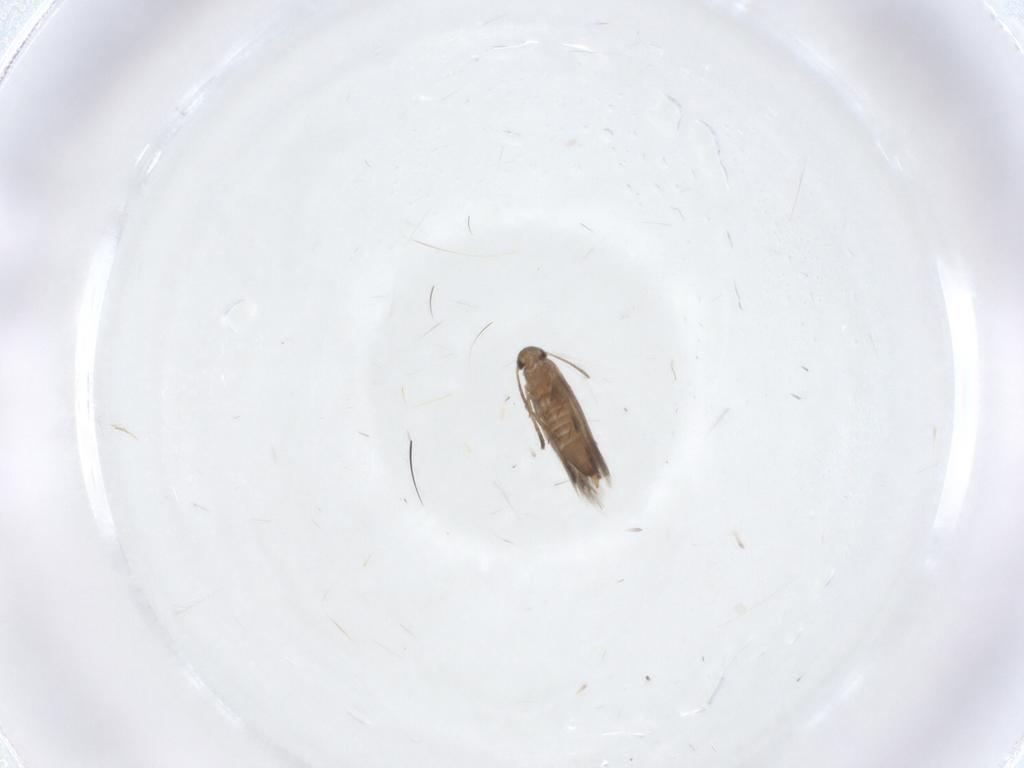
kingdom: Animalia
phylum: Arthropoda
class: Insecta
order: Lepidoptera
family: Heliozelidae
